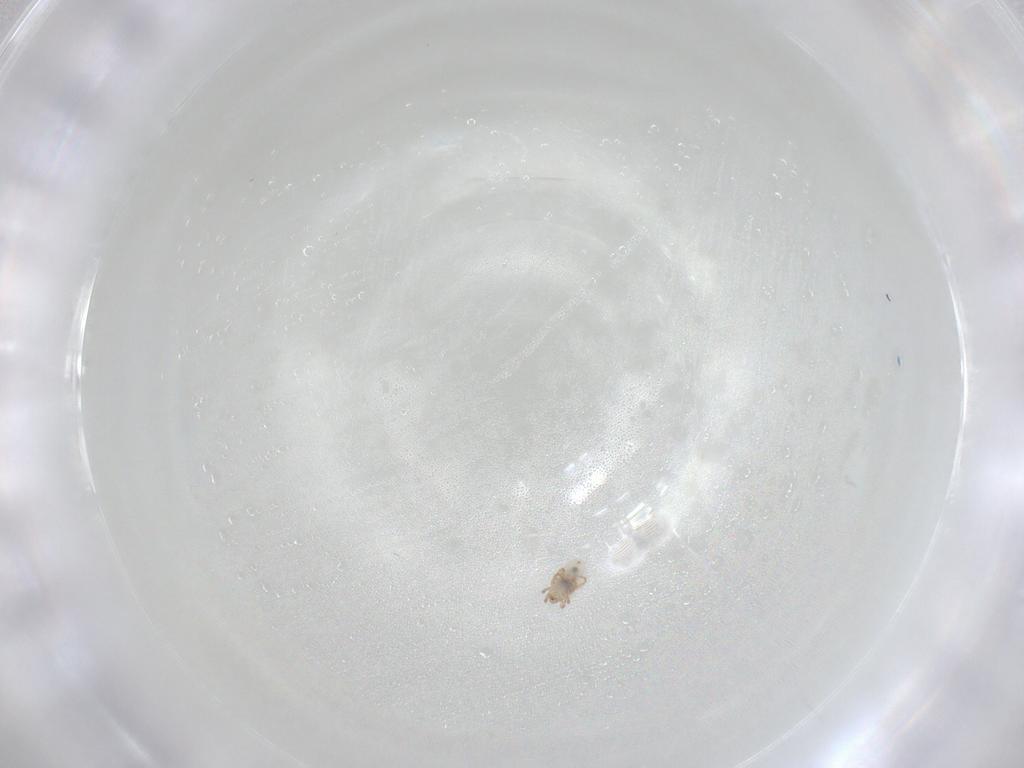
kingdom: Animalia
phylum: Arthropoda
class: Arachnida
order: Sarcoptiformes
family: Oribatulidae
